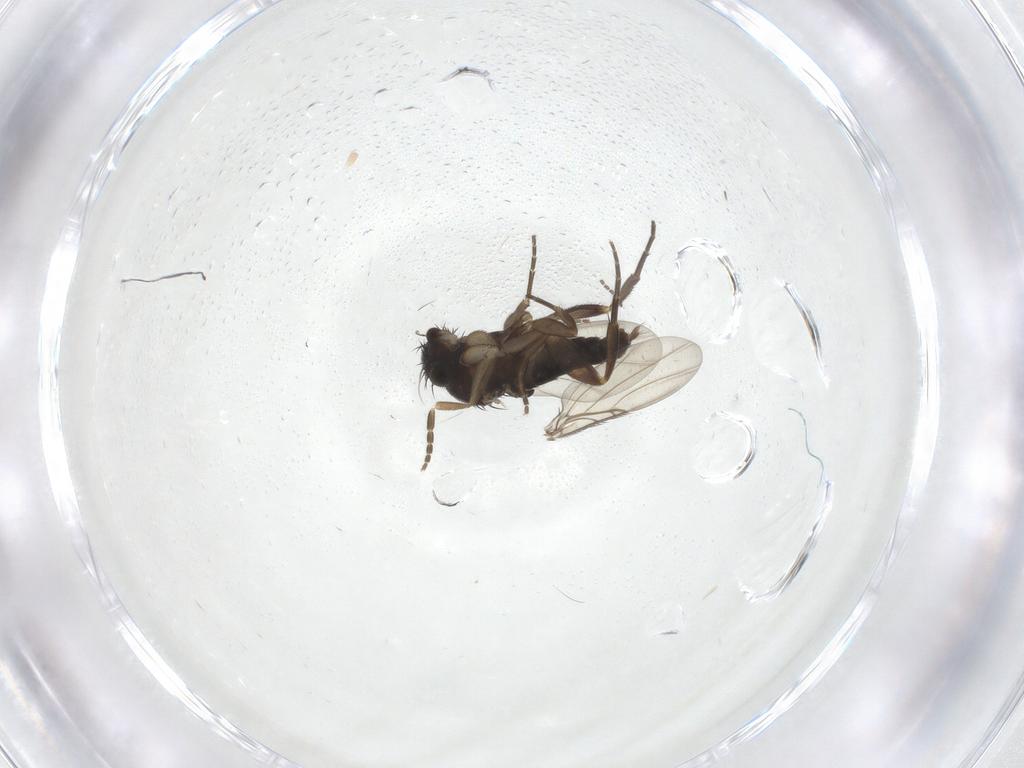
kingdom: Animalia
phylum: Arthropoda
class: Insecta
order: Diptera
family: Phoridae
